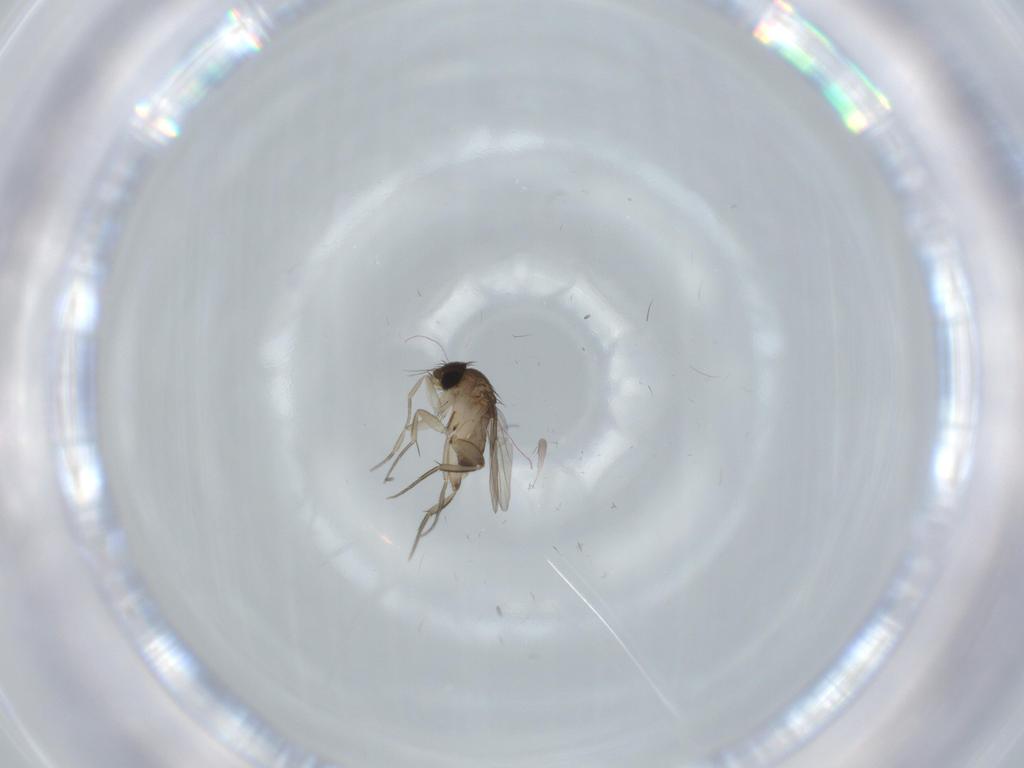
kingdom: Animalia
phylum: Arthropoda
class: Insecta
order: Diptera
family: Phoridae
